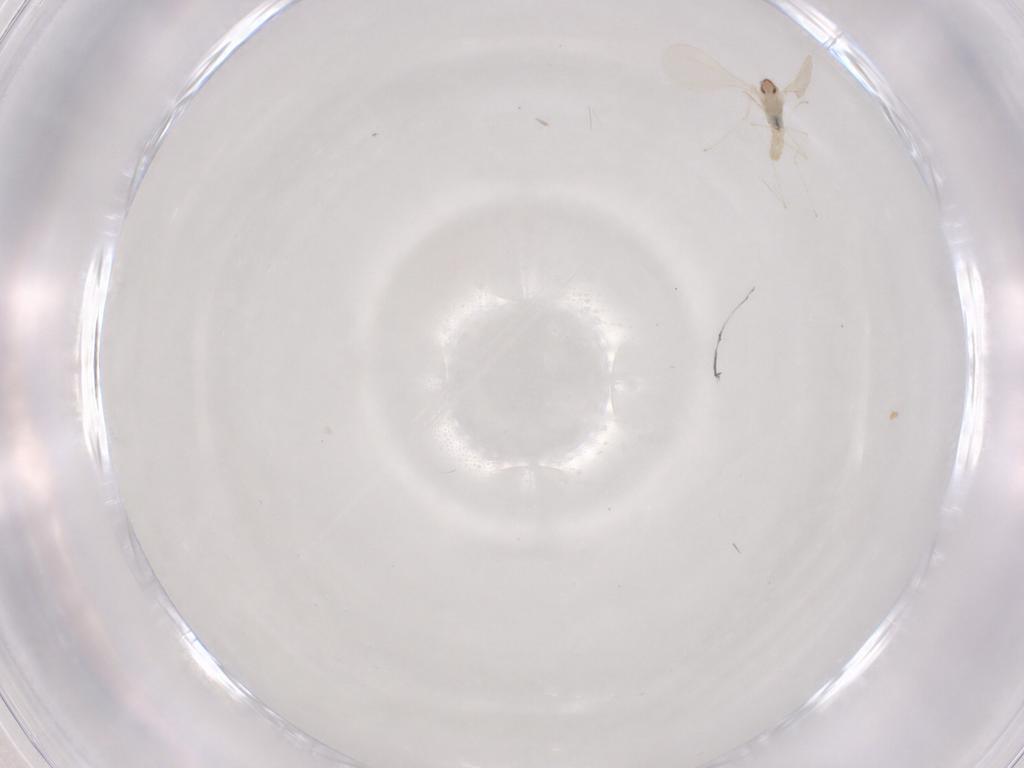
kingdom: Animalia
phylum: Arthropoda
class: Insecta
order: Diptera
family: Cecidomyiidae
